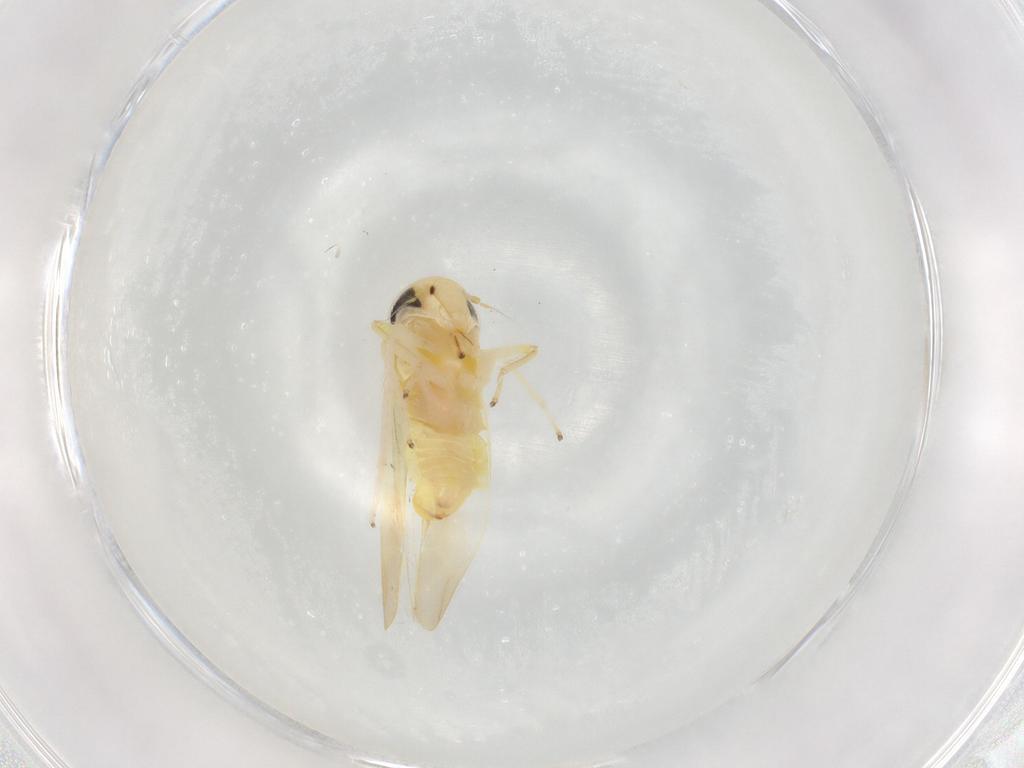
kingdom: Animalia
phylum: Arthropoda
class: Insecta
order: Hemiptera
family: Cicadellidae
